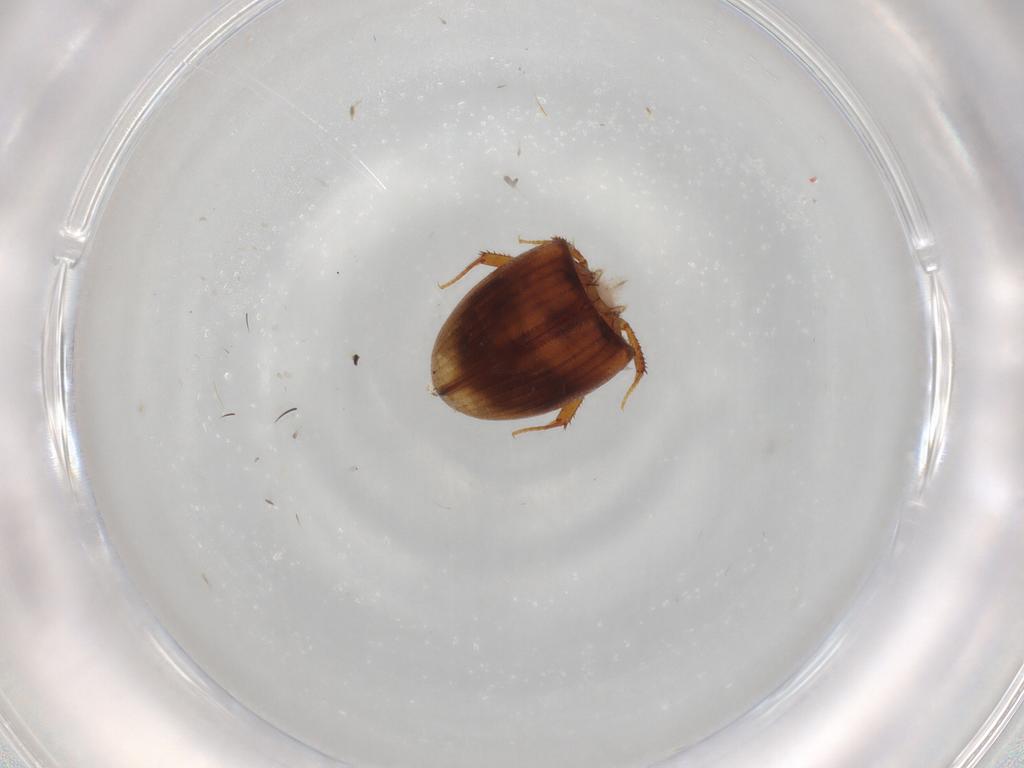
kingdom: Animalia
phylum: Arthropoda
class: Insecta
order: Coleoptera
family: Hydrophilidae
